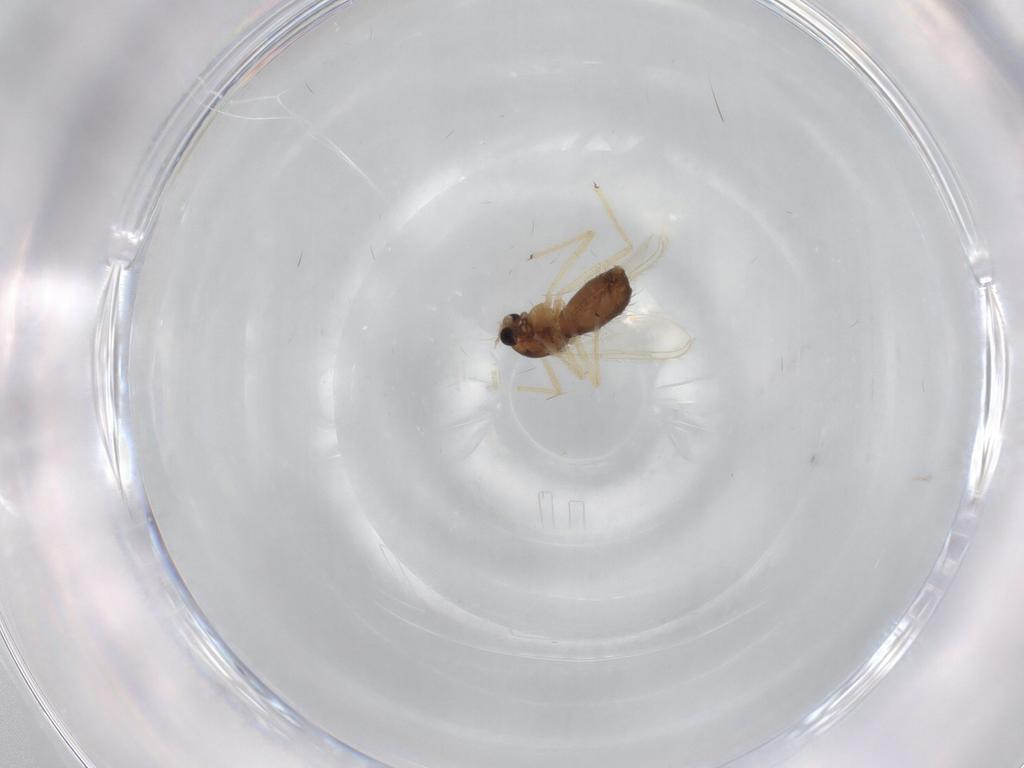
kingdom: Animalia
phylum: Arthropoda
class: Insecta
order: Diptera
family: Chironomidae
